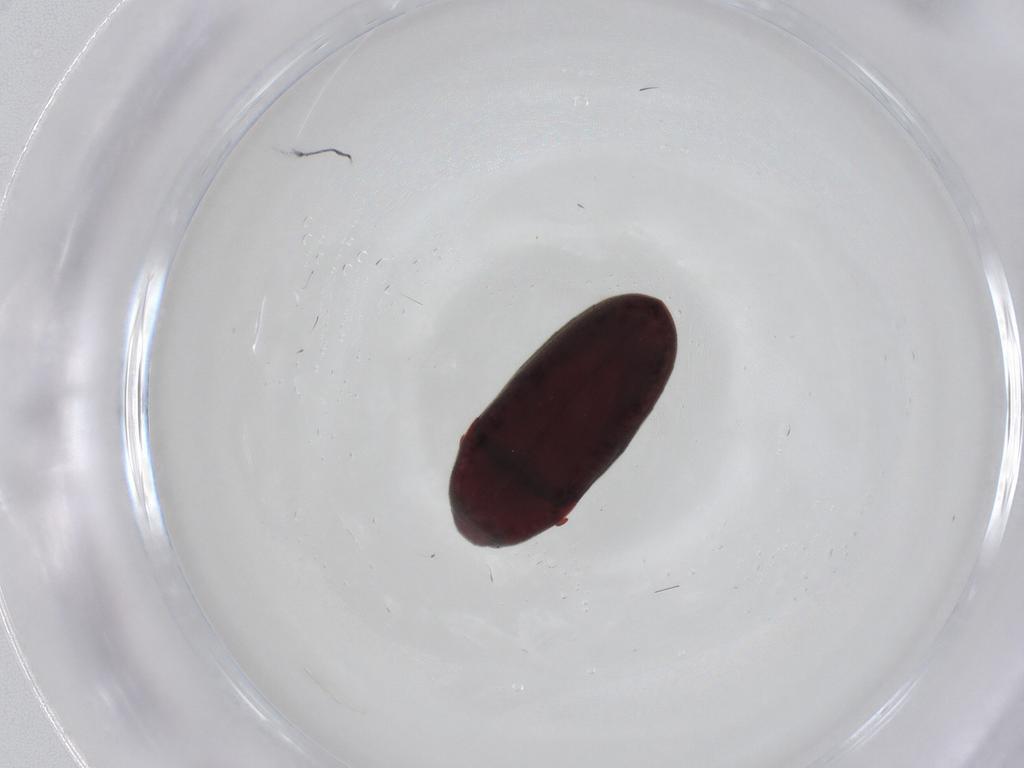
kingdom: Animalia
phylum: Arthropoda
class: Insecta
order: Coleoptera
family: Throscidae
